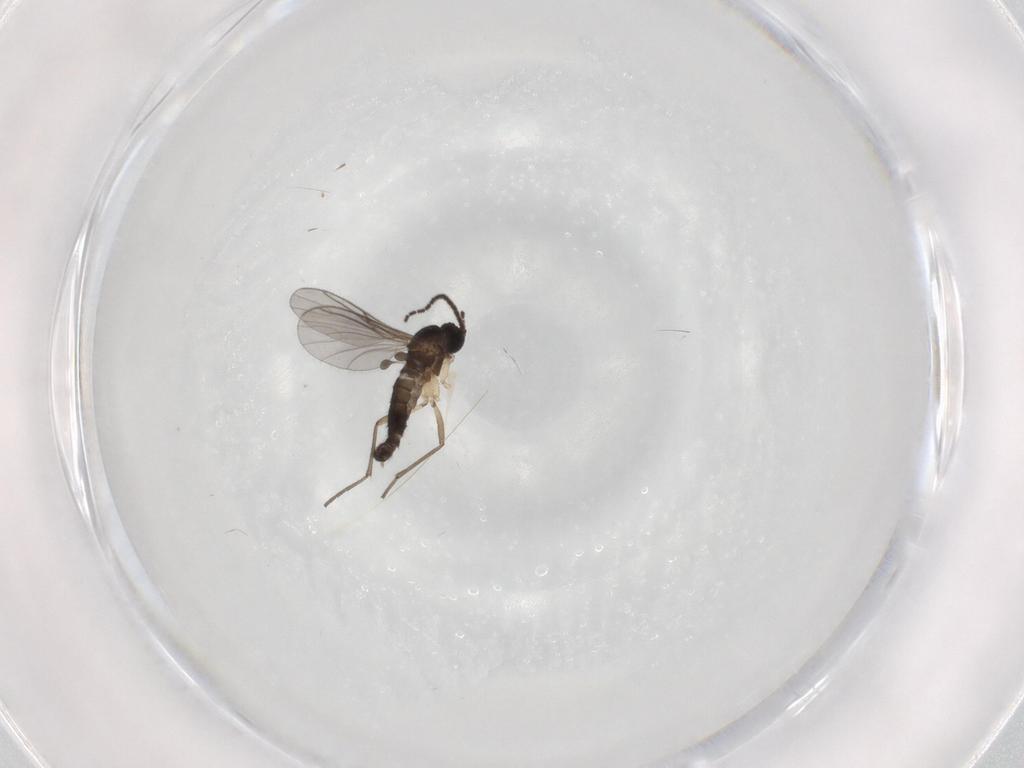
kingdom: Animalia
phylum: Arthropoda
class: Insecta
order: Diptera
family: Sciaridae
